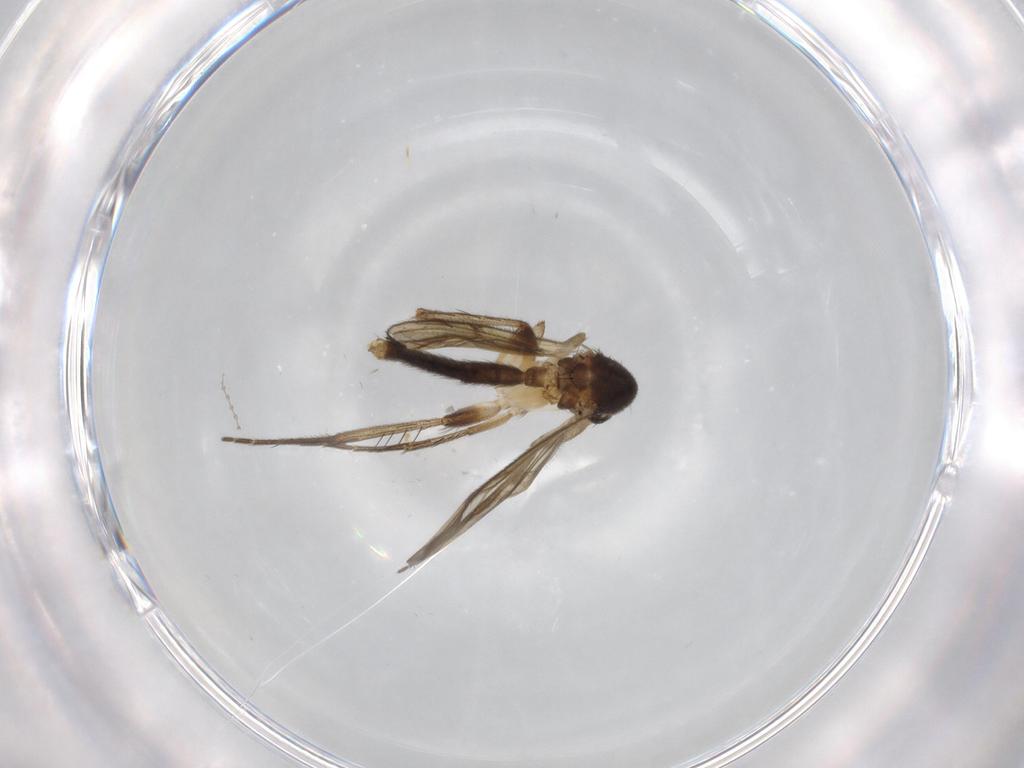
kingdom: Animalia
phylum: Arthropoda
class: Insecta
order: Diptera
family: Mycetophilidae
